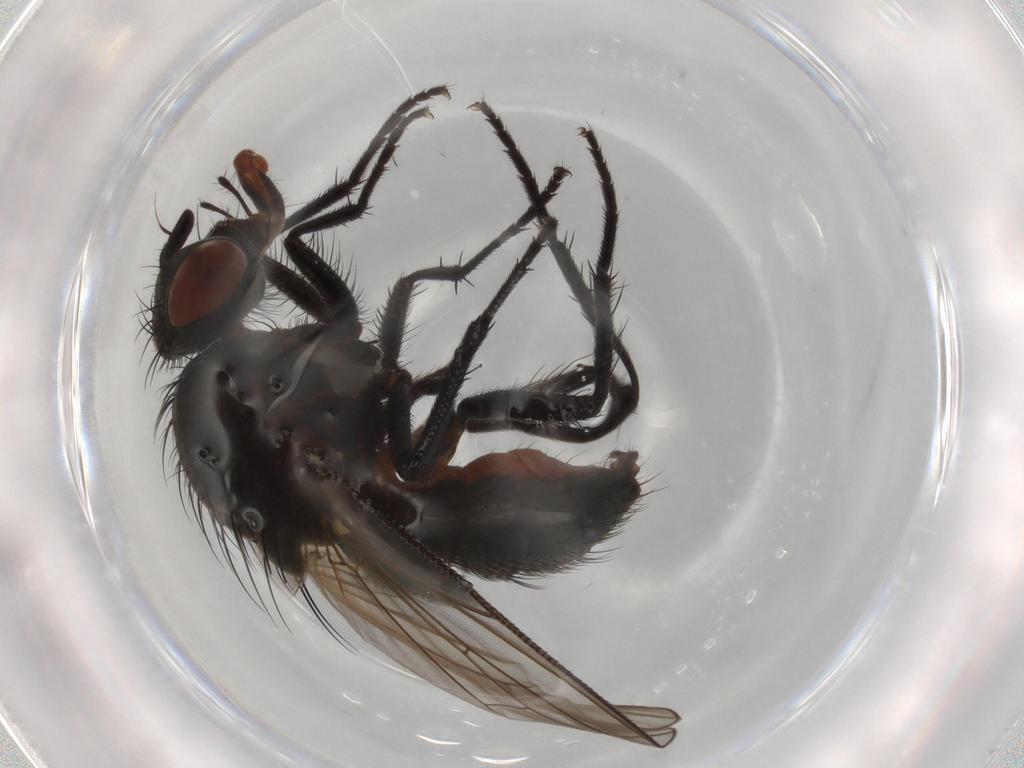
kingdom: Animalia
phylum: Arthropoda
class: Insecta
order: Diptera
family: Anthomyiidae
